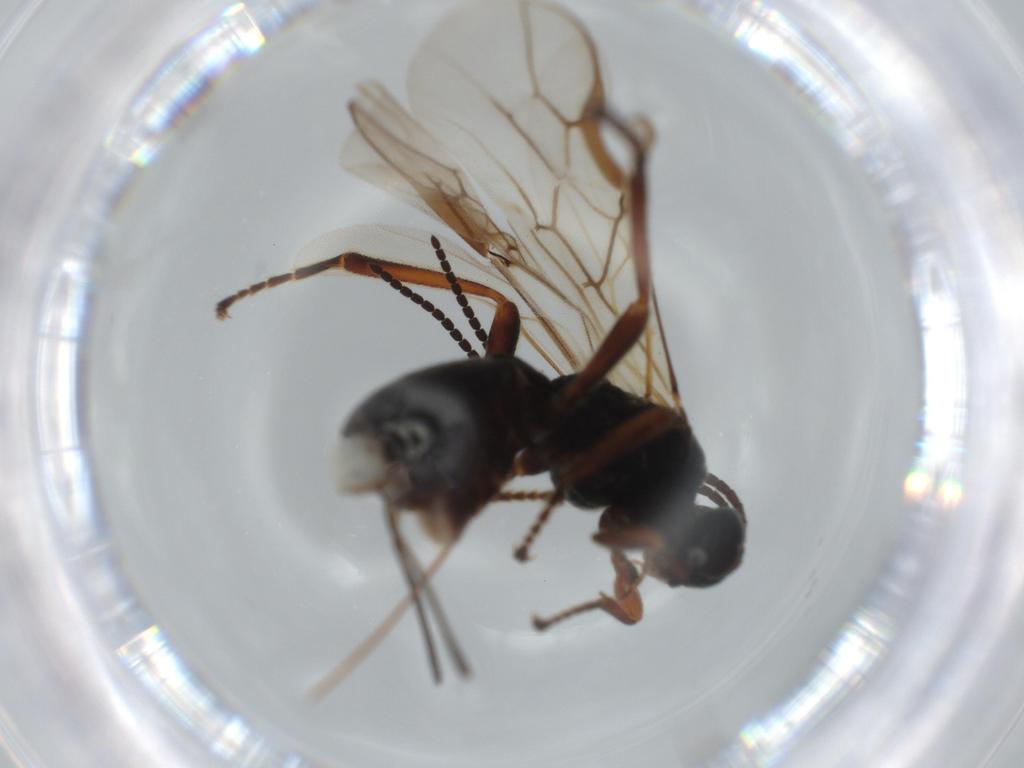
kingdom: Animalia
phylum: Arthropoda
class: Insecta
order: Hymenoptera
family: Braconidae
